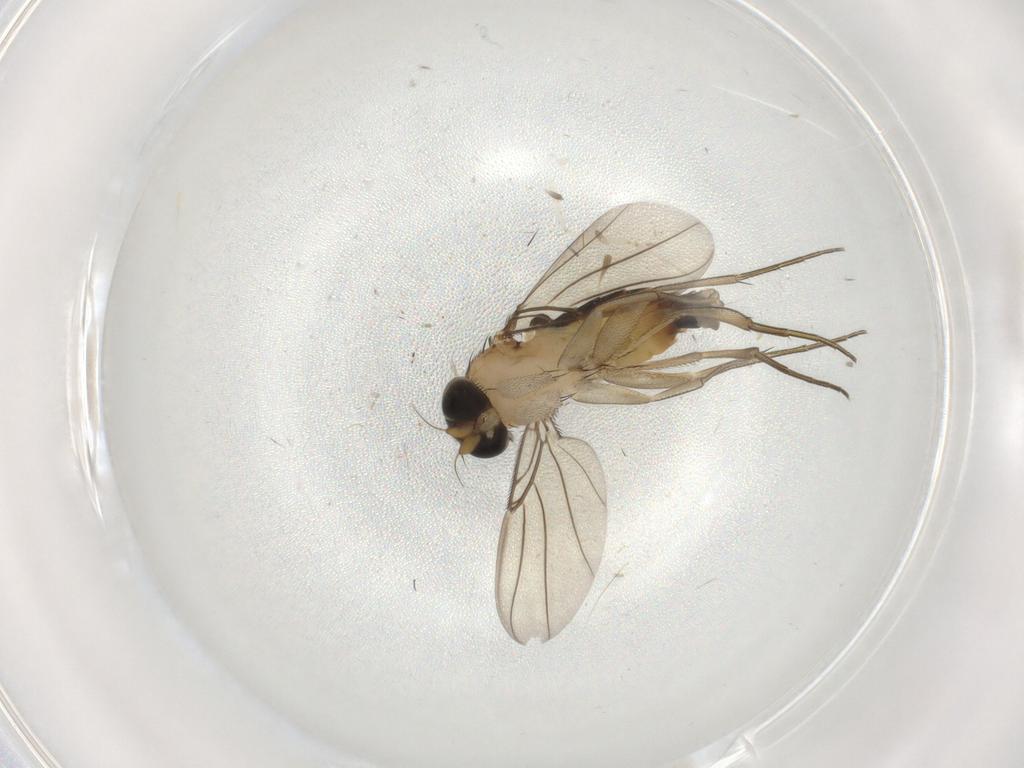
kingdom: Animalia
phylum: Arthropoda
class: Insecta
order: Diptera
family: Phoridae
